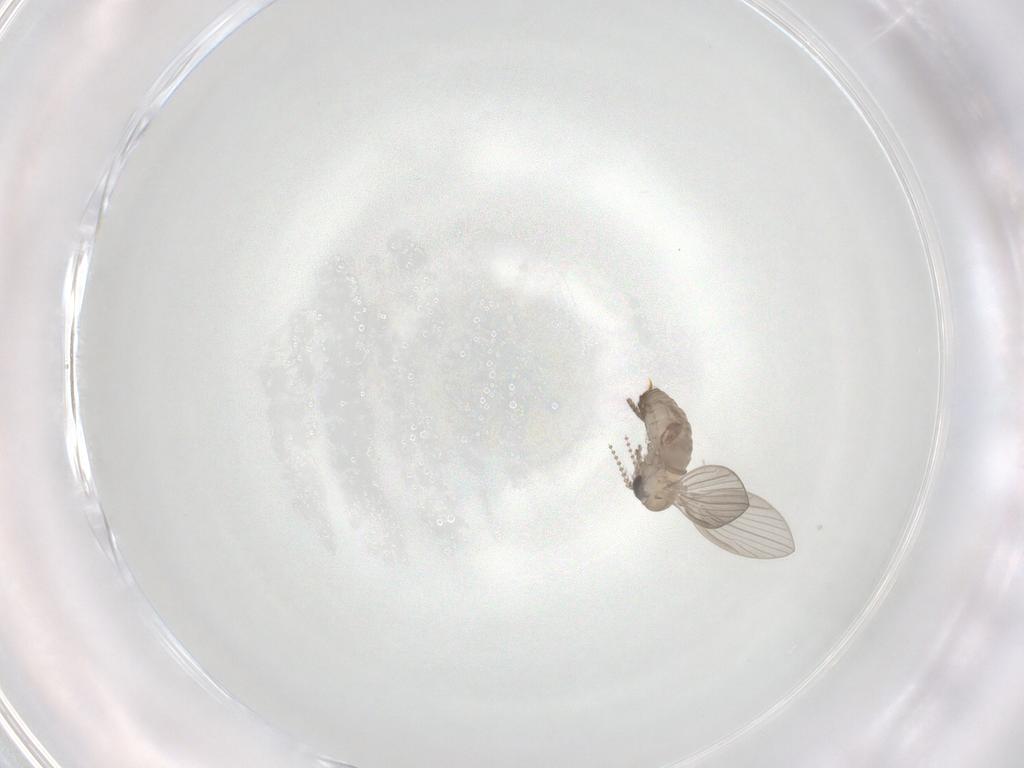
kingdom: Animalia
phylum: Arthropoda
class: Insecta
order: Diptera
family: Psychodidae
